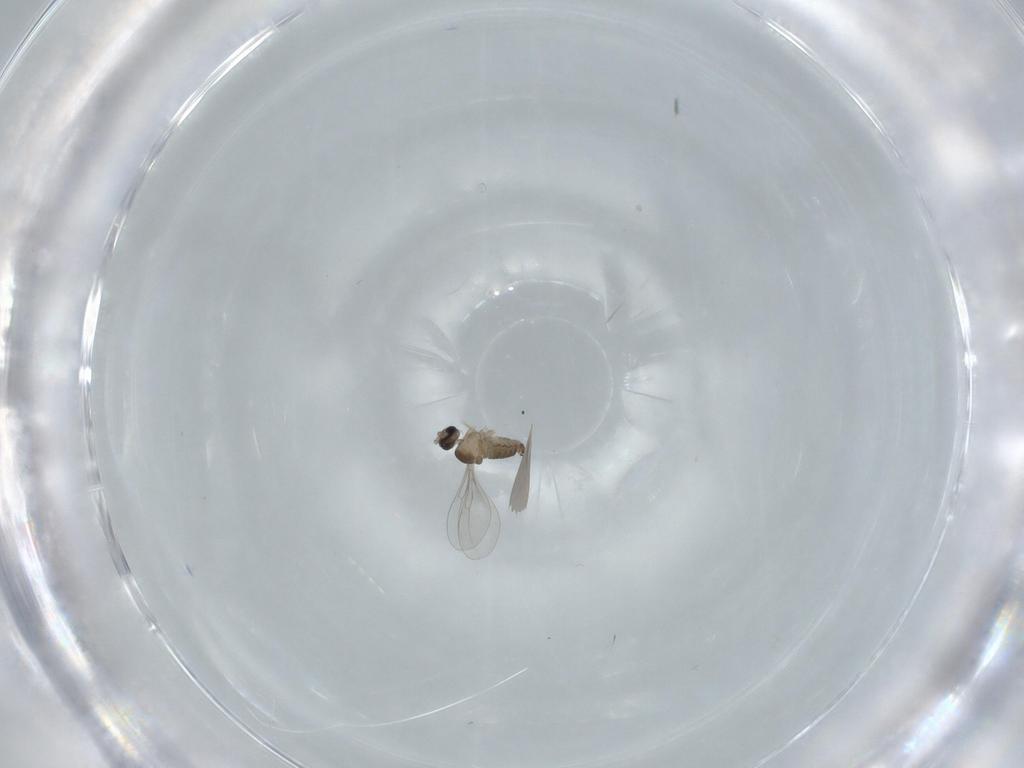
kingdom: Animalia
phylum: Arthropoda
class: Insecta
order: Diptera
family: Cecidomyiidae
